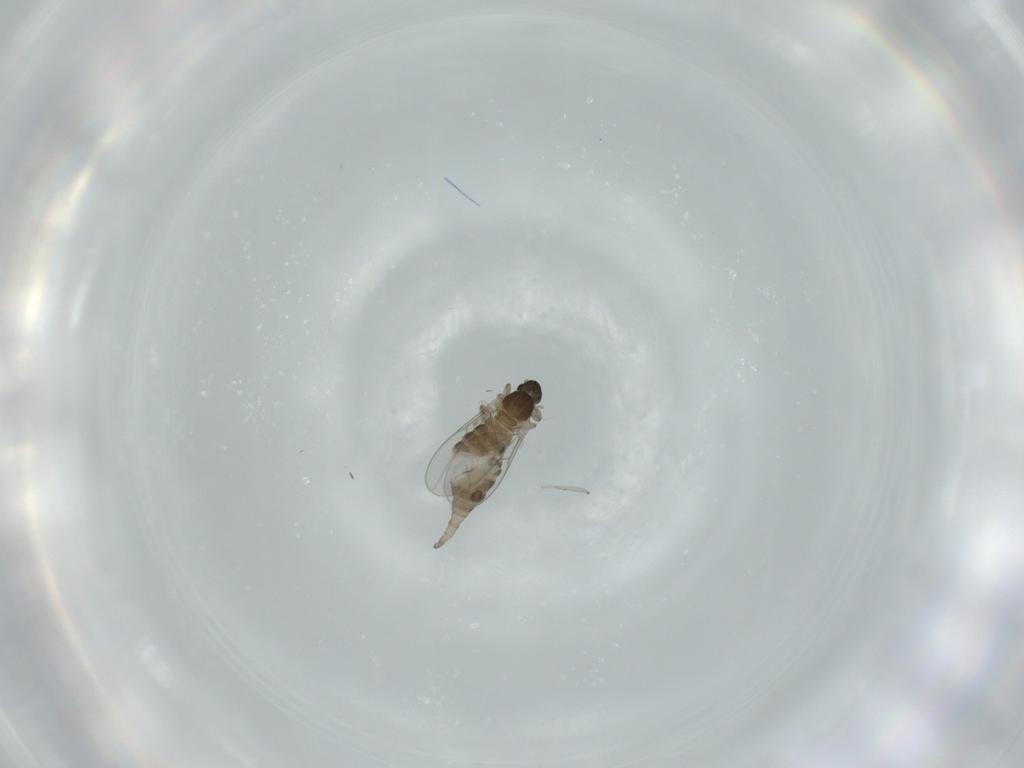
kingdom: Animalia
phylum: Arthropoda
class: Insecta
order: Diptera
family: Cecidomyiidae
